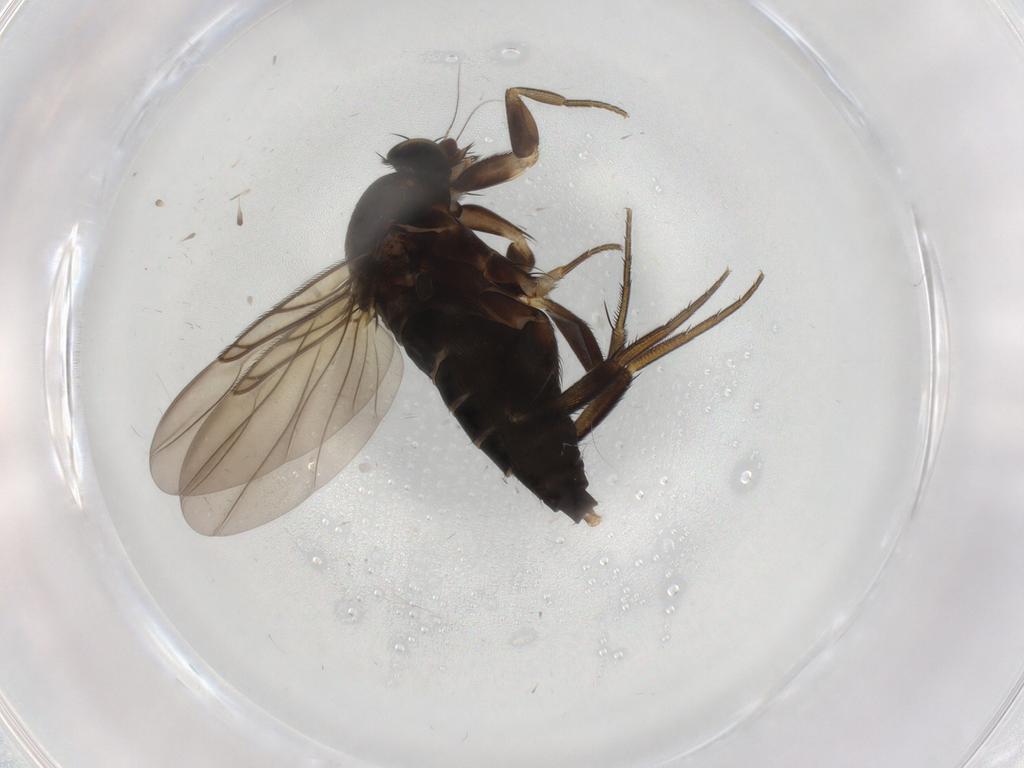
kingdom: Animalia
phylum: Arthropoda
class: Insecta
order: Diptera
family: Phoridae
